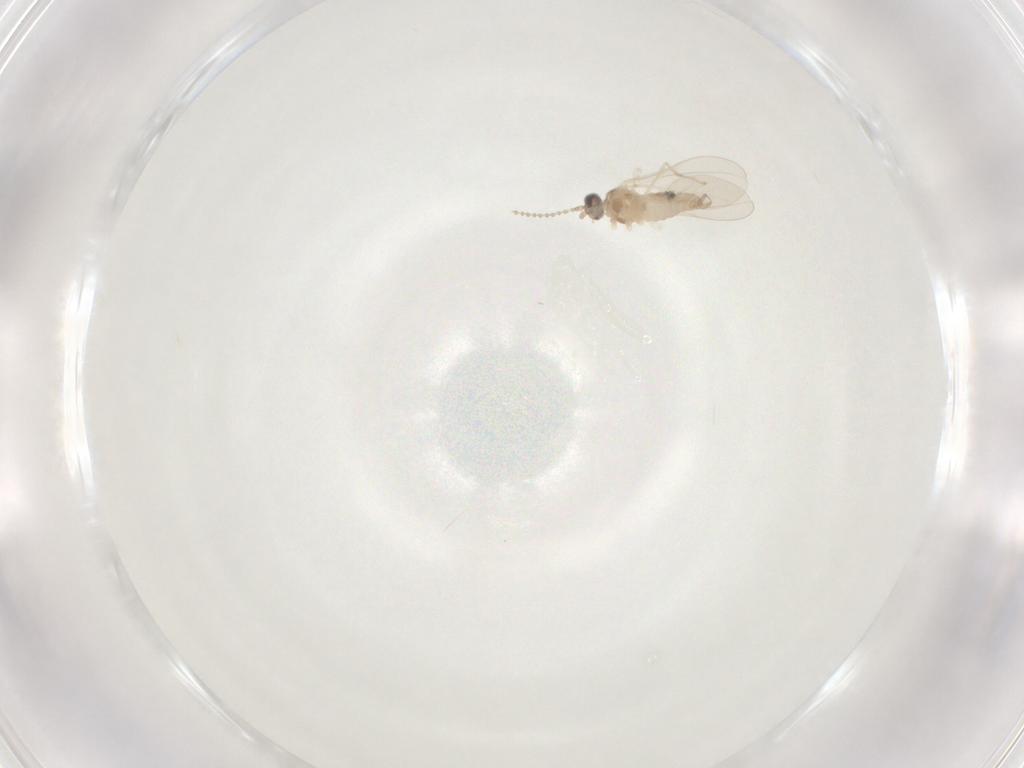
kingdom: Animalia
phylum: Arthropoda
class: Insecta
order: Diptera
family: Cecidomyiidae
